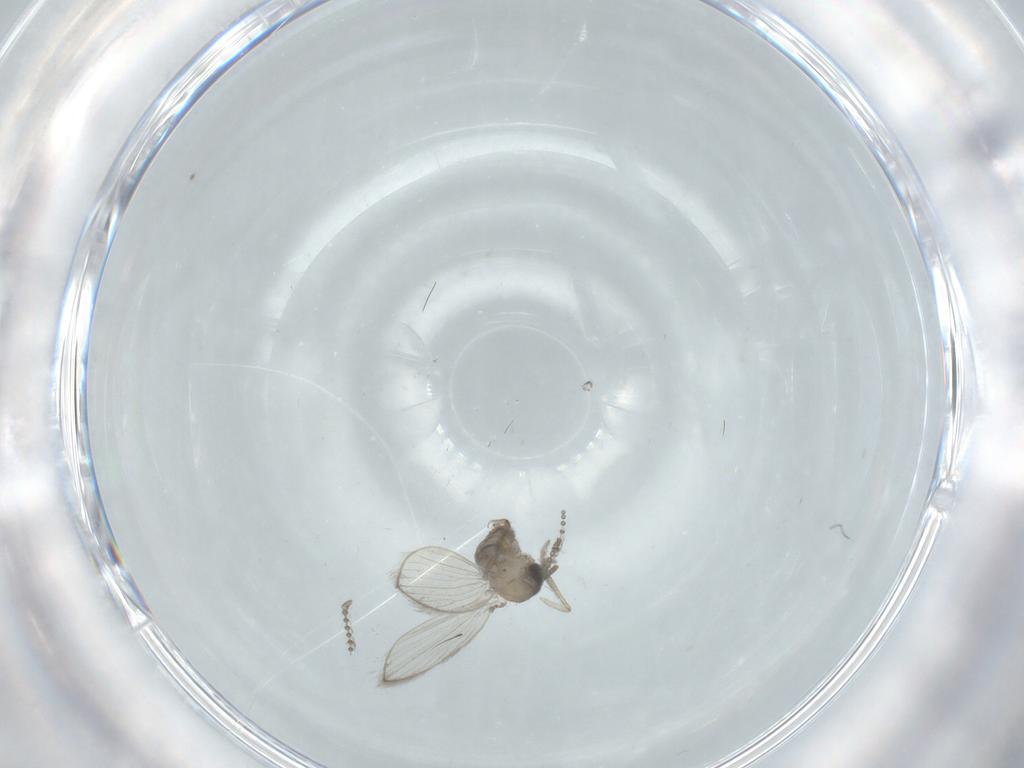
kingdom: Animalia
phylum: Arthropoda
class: Insecta
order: Diptera
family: Psychodidae
